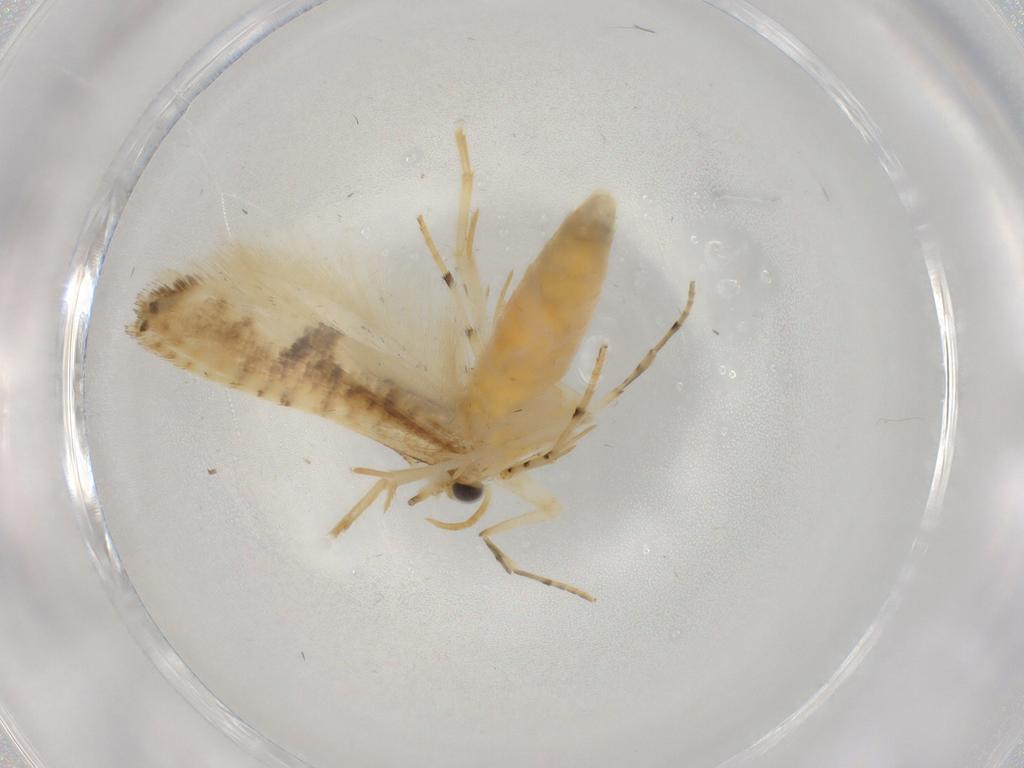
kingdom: Animalia
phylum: Arthropoda
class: Insecta
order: Lepidoptera
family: Argyresthiidae
